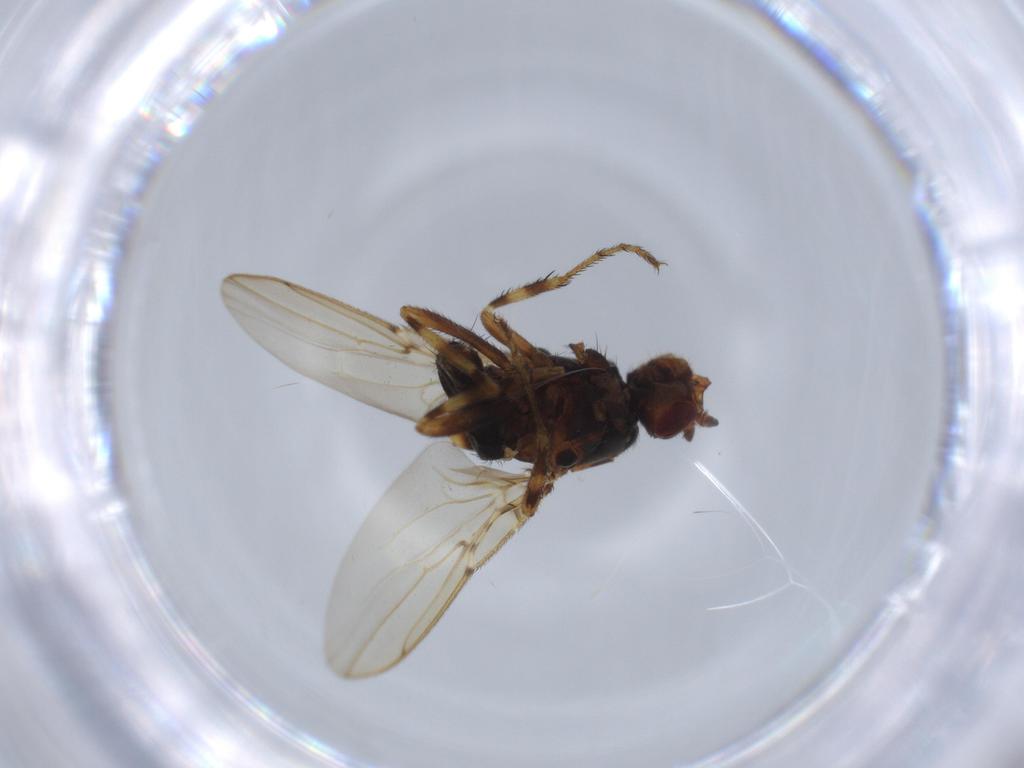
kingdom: Animalia
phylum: Arthropoda
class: Insecta
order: Diptera
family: Sphaeroceridae
